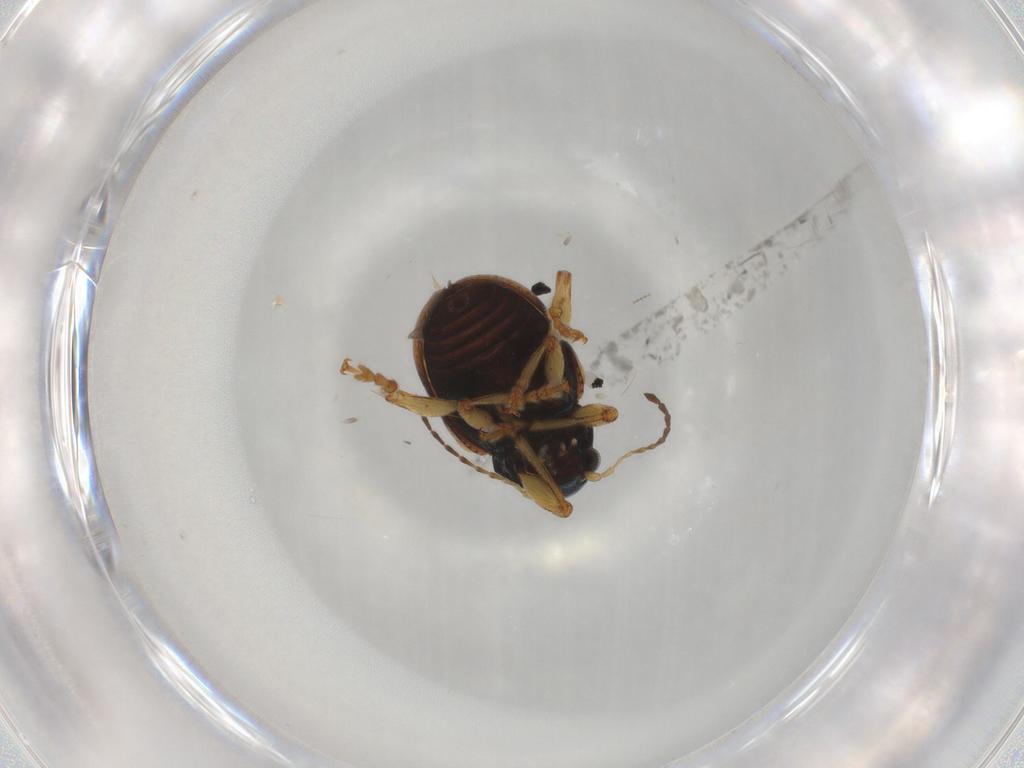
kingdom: Animalia
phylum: Arthropoda
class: Insecta
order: Coleoptera
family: Chrysomelidae
